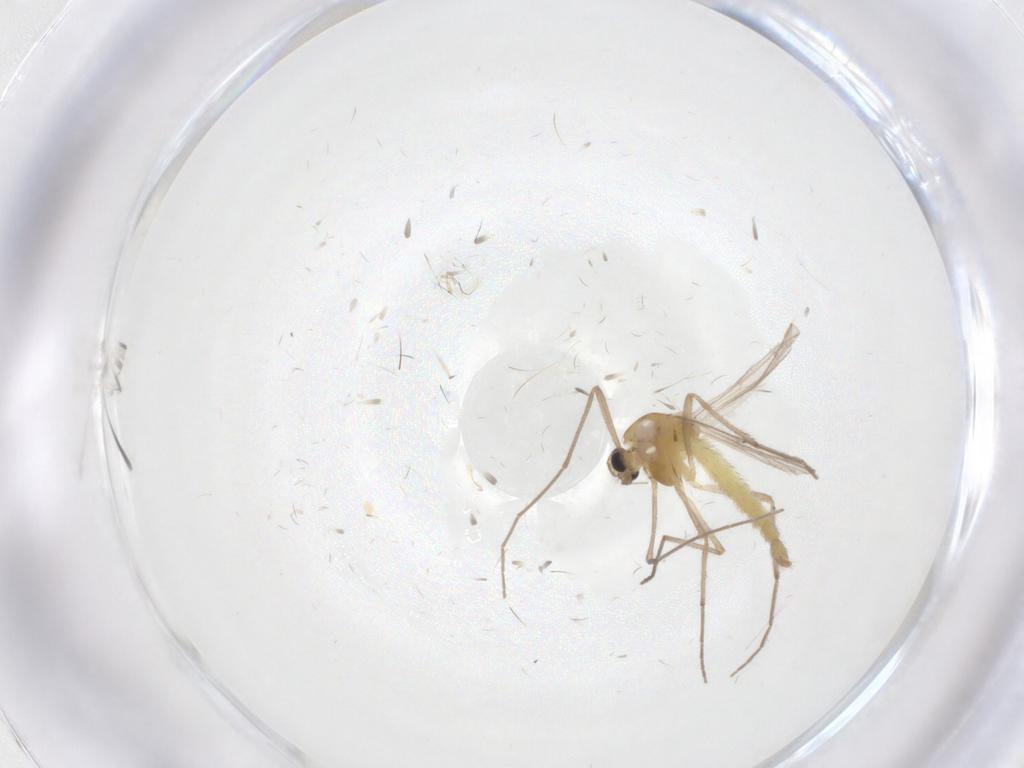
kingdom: Animalia
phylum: Arthropoda
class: Insecta
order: Diptera
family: Chironomidae
